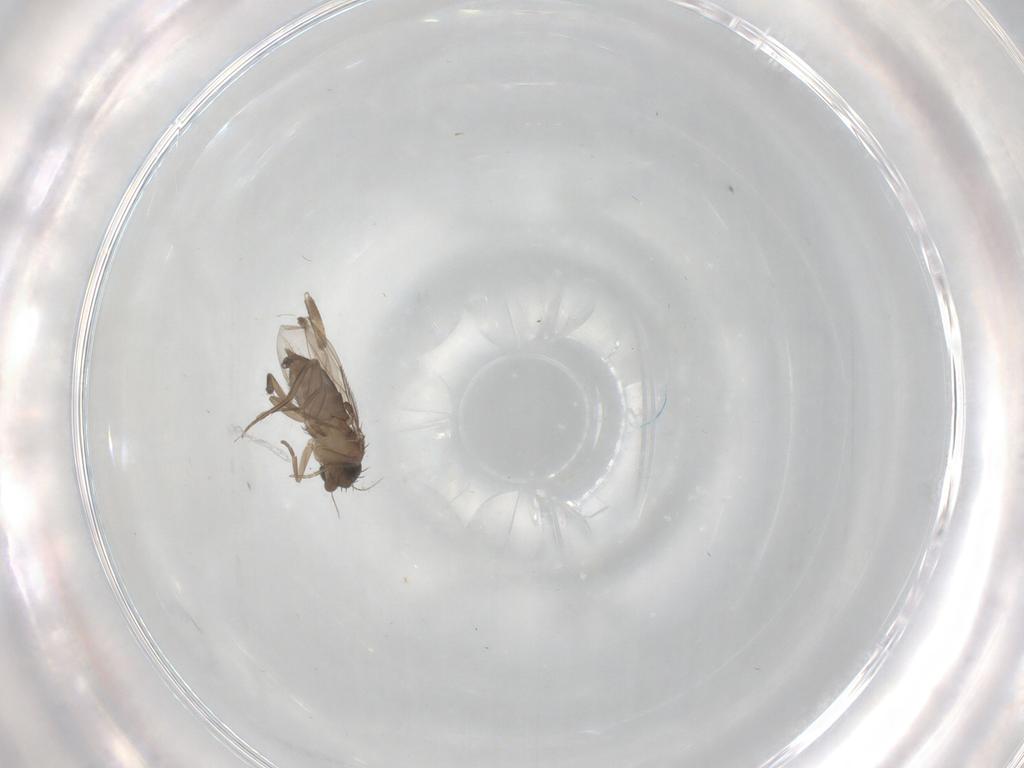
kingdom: Animalia
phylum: Arthropoda
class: Insecta
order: Diptera
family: Cecidomyiidae
